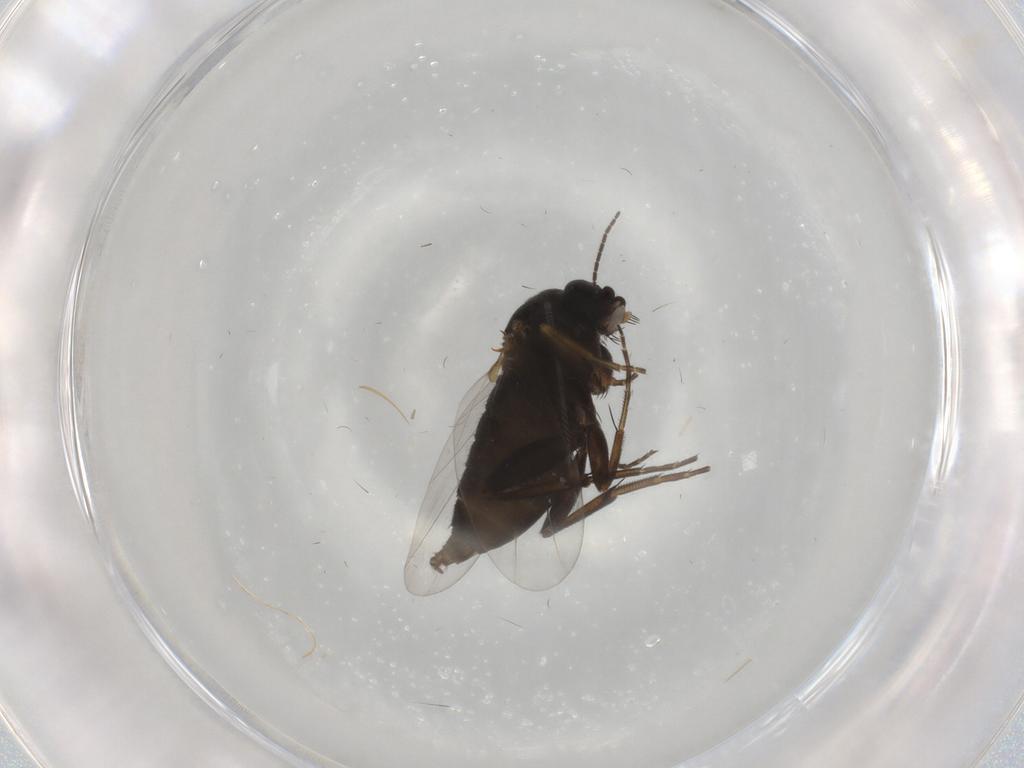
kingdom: Animalia
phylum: Arthropoda
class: Insecta
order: Diptera
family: Phoridae
